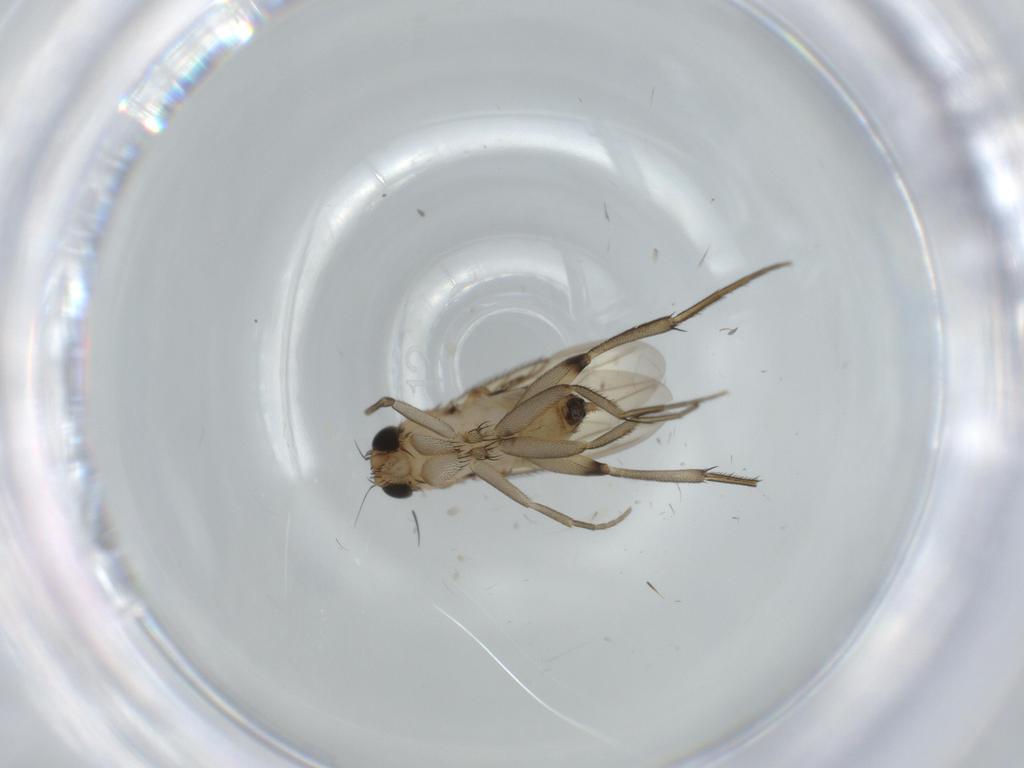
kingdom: Animalia
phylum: Arthropoda
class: Insecta
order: Diptera
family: Phoridae
